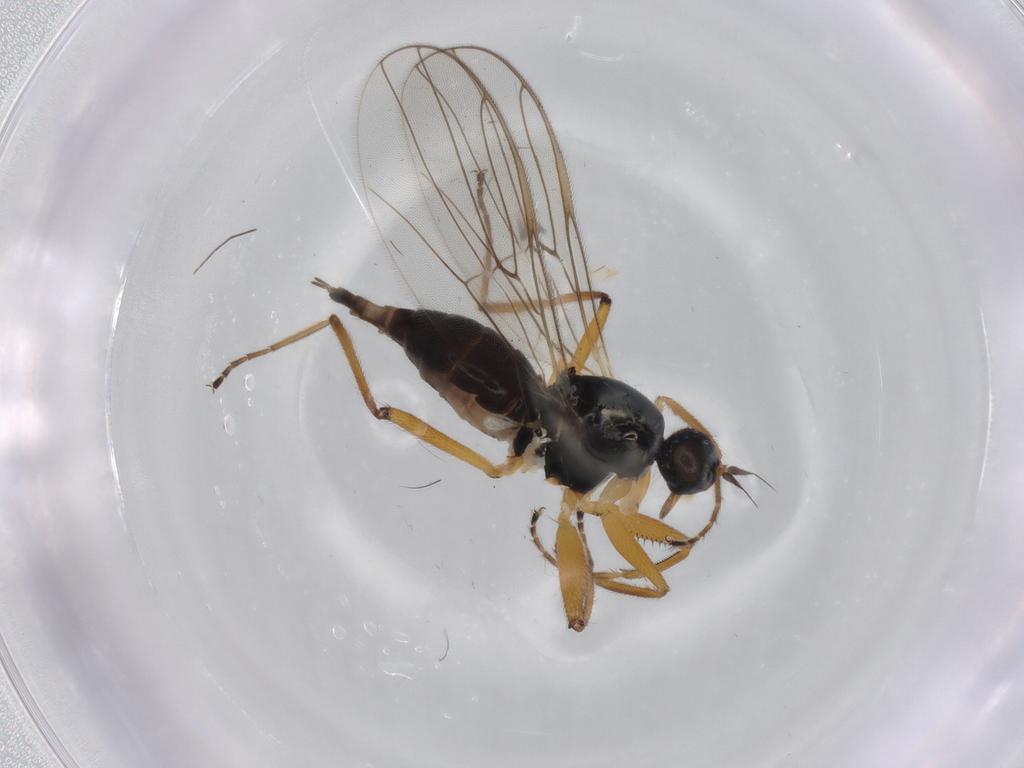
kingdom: Animalia
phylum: Arthropoda
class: Insecta
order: Diptera
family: Hybotidae
